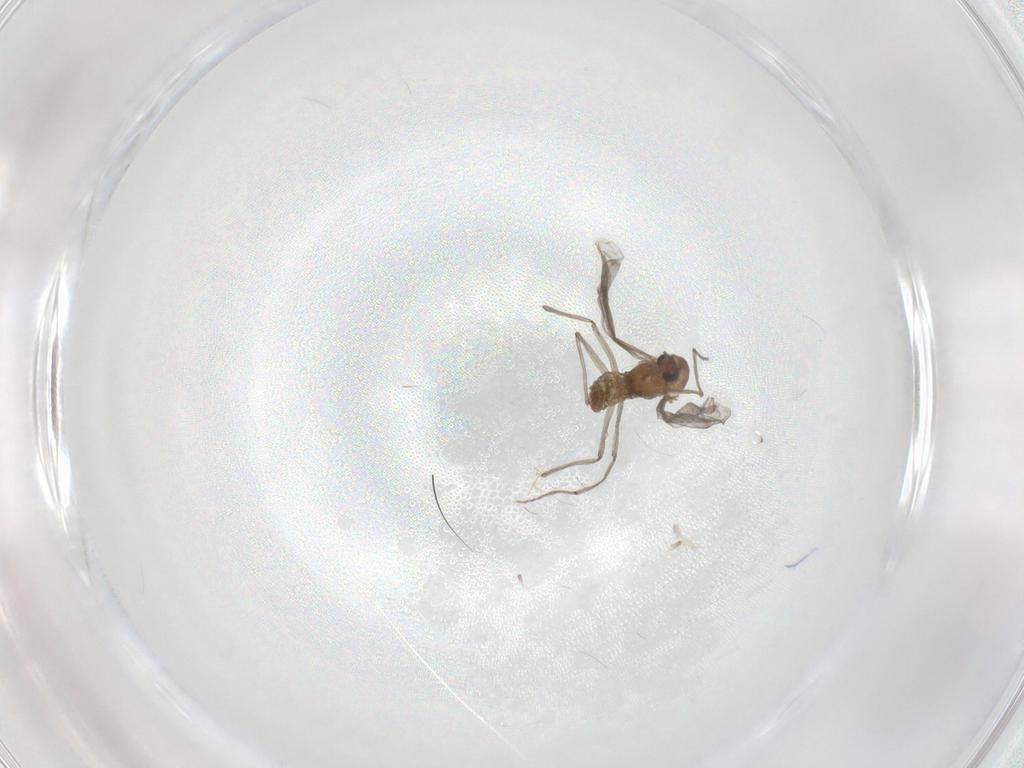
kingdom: Animalia
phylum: Arthropoda
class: Insecta
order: Diptera
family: Chironomidae
